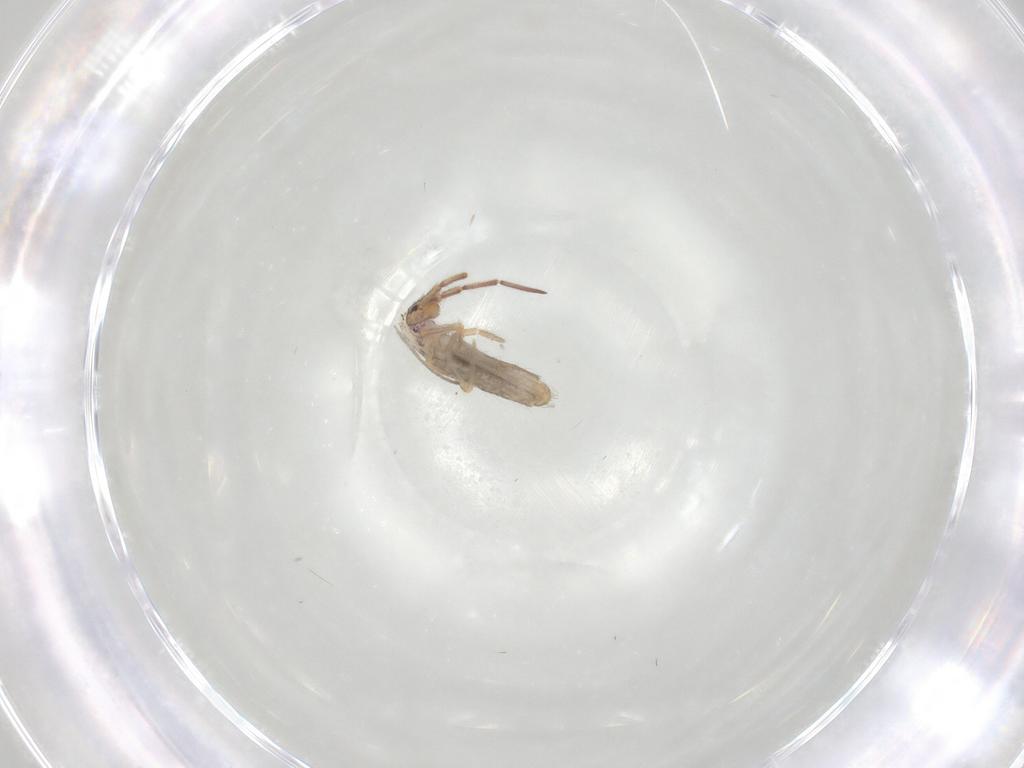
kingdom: Animalia
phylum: Arthropoda
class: Collembola
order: Entomobryomorpha
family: Entomobryidae
